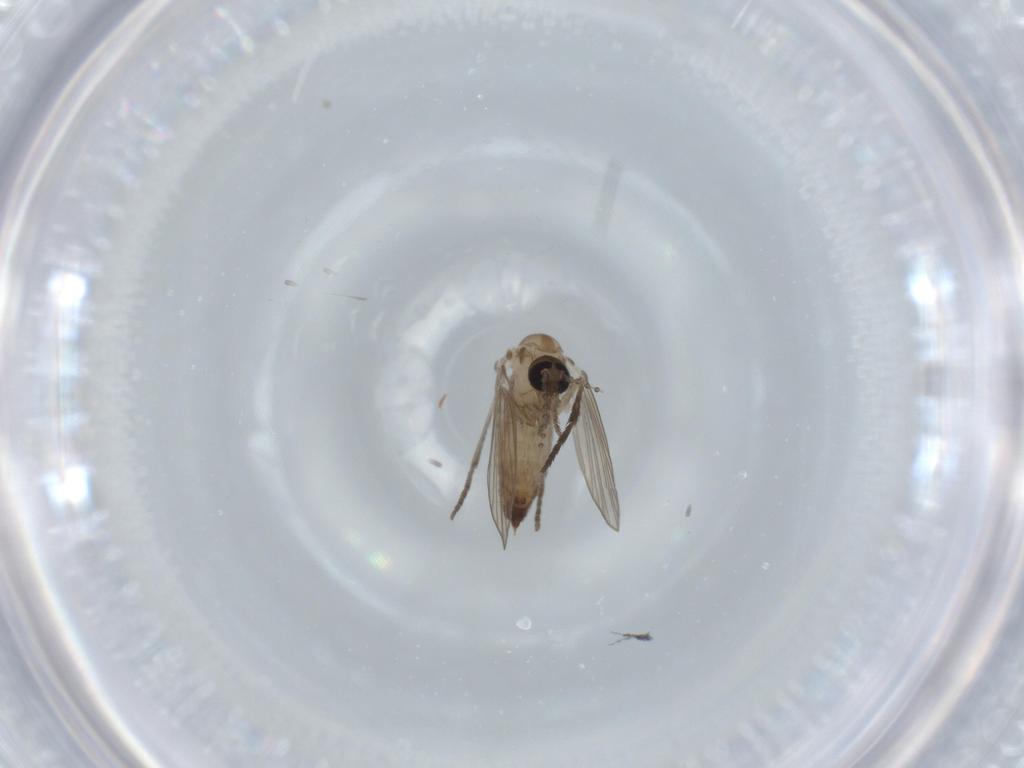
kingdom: Animalia
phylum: Arthropoda
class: Insecta
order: Diptera
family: Psychodidae
